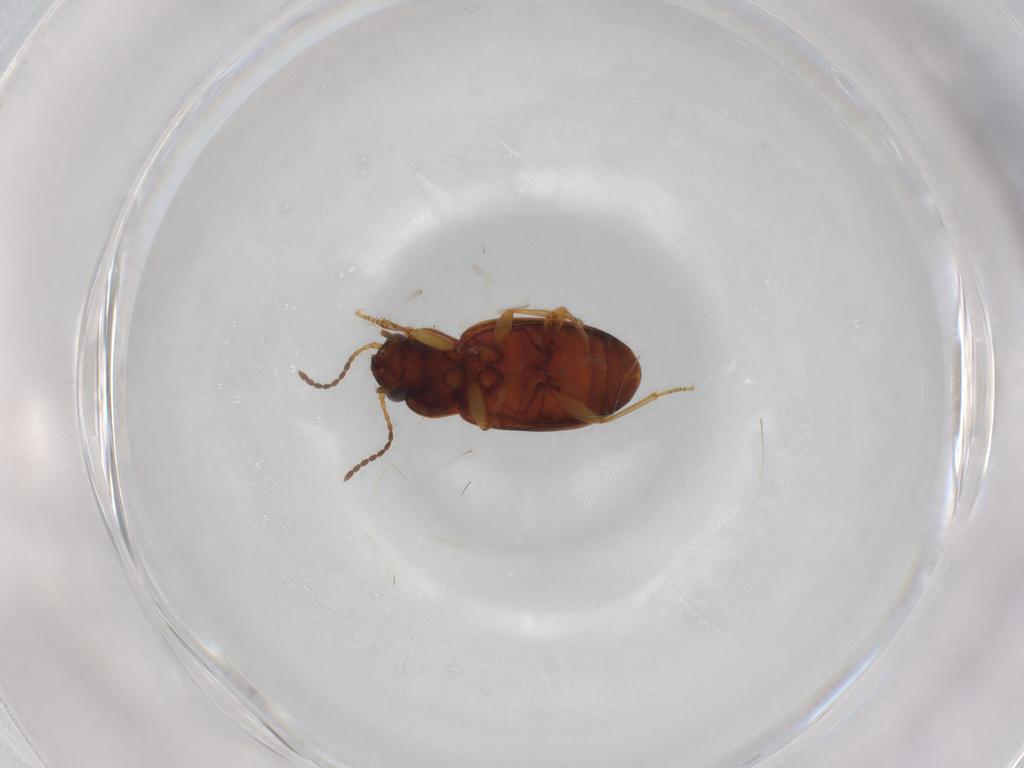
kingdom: Animalia
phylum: Arthropoda
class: Insecta
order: Coleoptera
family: Carabidae
